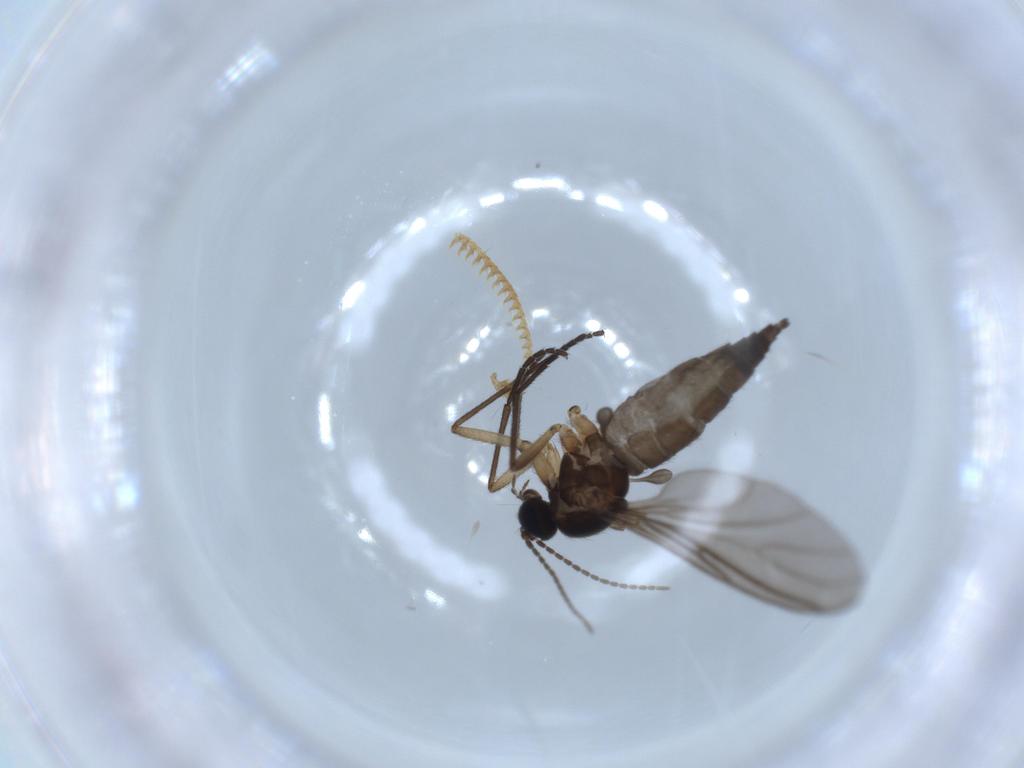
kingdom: Animalia
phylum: Arthropoda
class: Insecta
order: Diptera
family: Sciaridae
